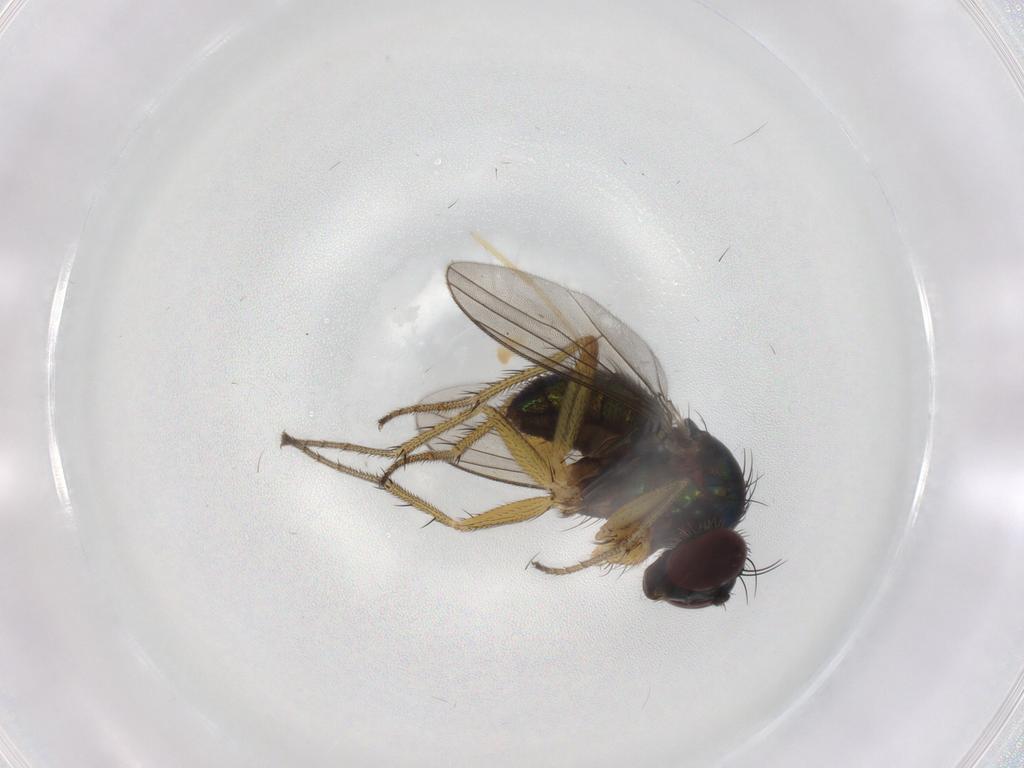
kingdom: Animalia
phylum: Arthropoda
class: Insecta
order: Diptera
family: Dolichopodidae
